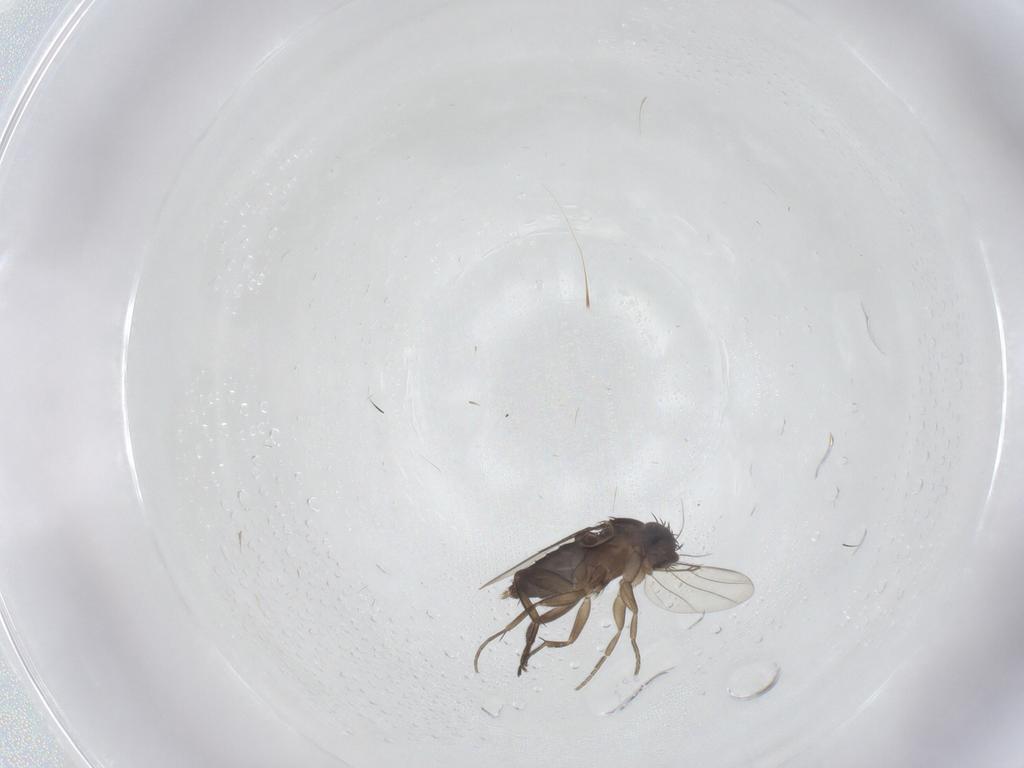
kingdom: Animalia
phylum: Arthropoda
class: Insecta
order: Diptera
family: Phoridae
